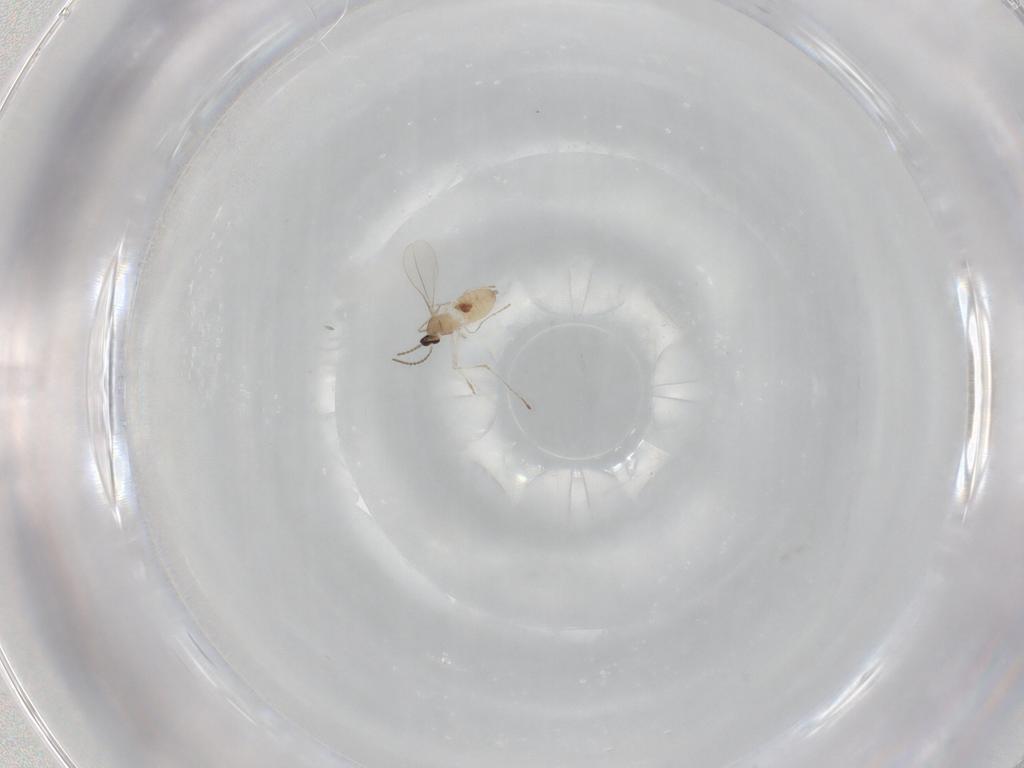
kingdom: Animalia
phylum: Arthropoda
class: Insecta
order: Diptera
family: Cecidomyiidae
